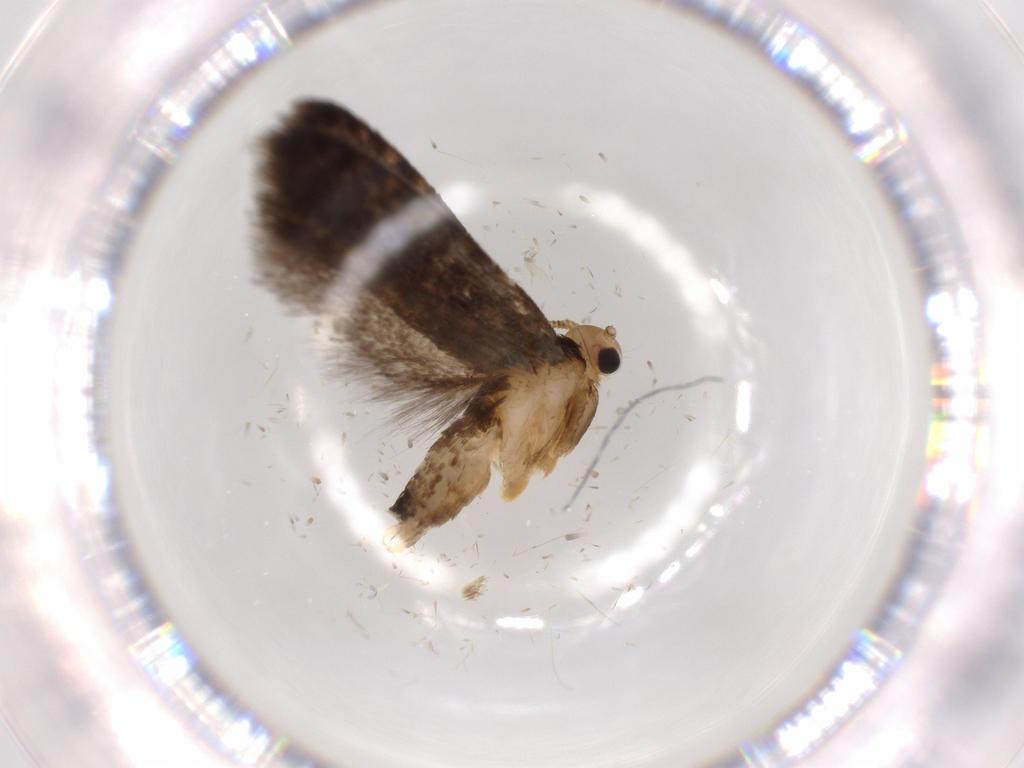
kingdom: Animalia
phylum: Arthropoda
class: Insecta
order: Lepidoptera
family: Tineidae
